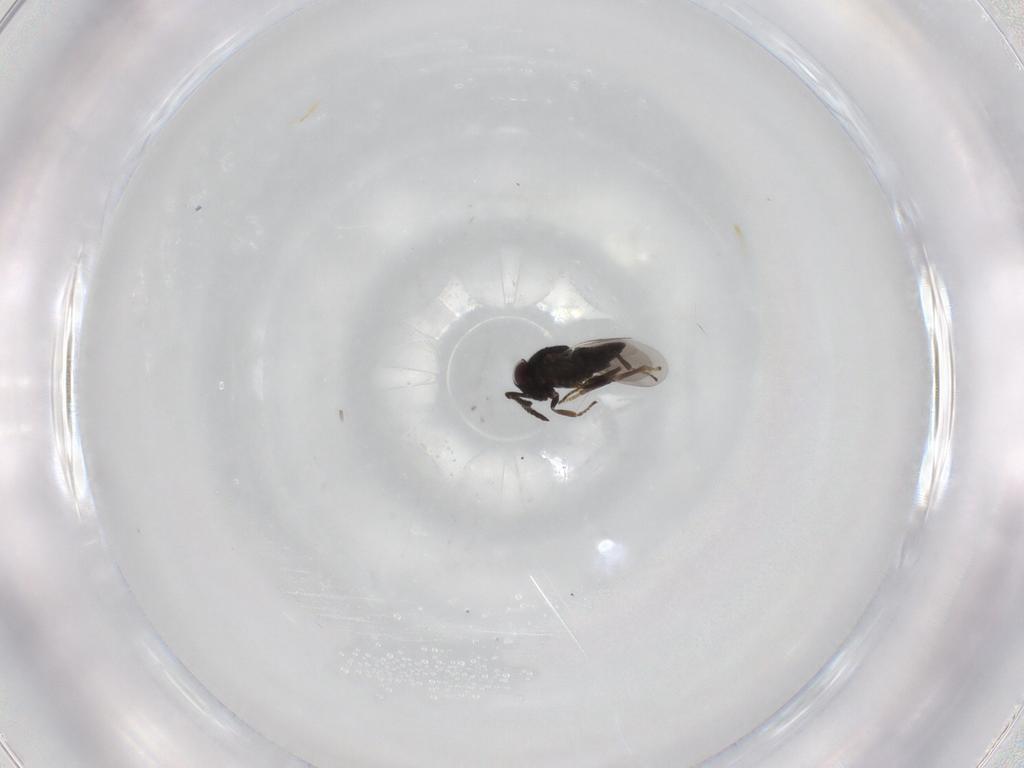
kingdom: Animalia
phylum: Arthropoda
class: Insecta
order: Hymenoptera
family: Encyrtidae
